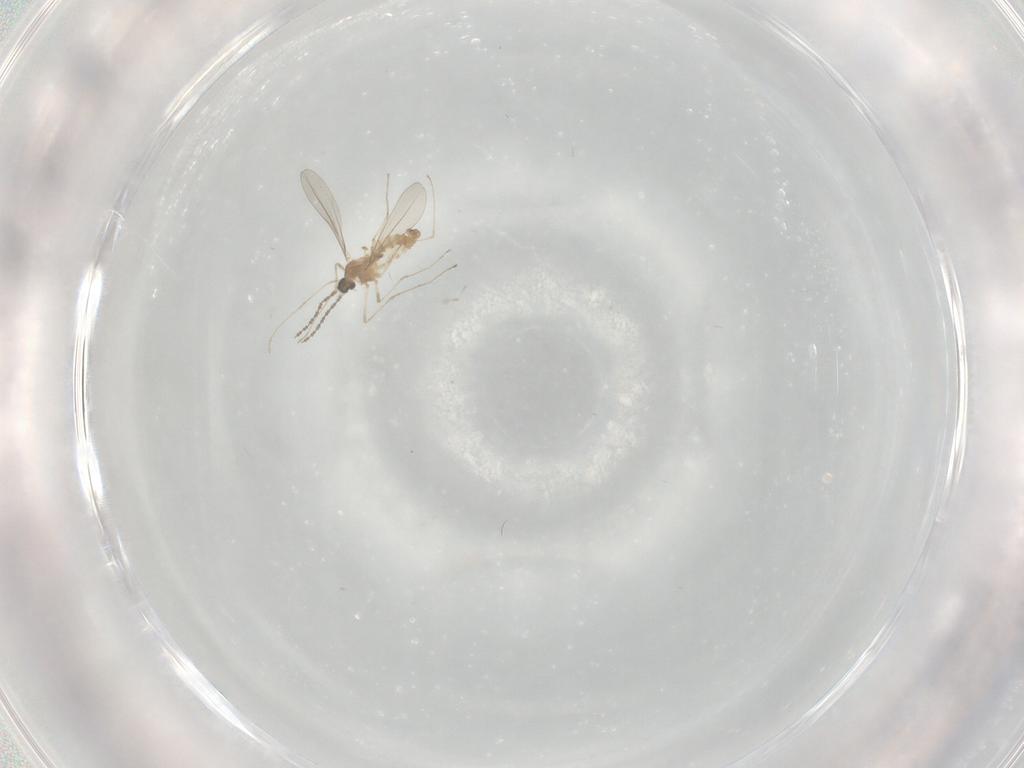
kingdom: Animalia
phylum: Arthropoda
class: Insecta
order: Diptera
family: Cecidomyiidae
